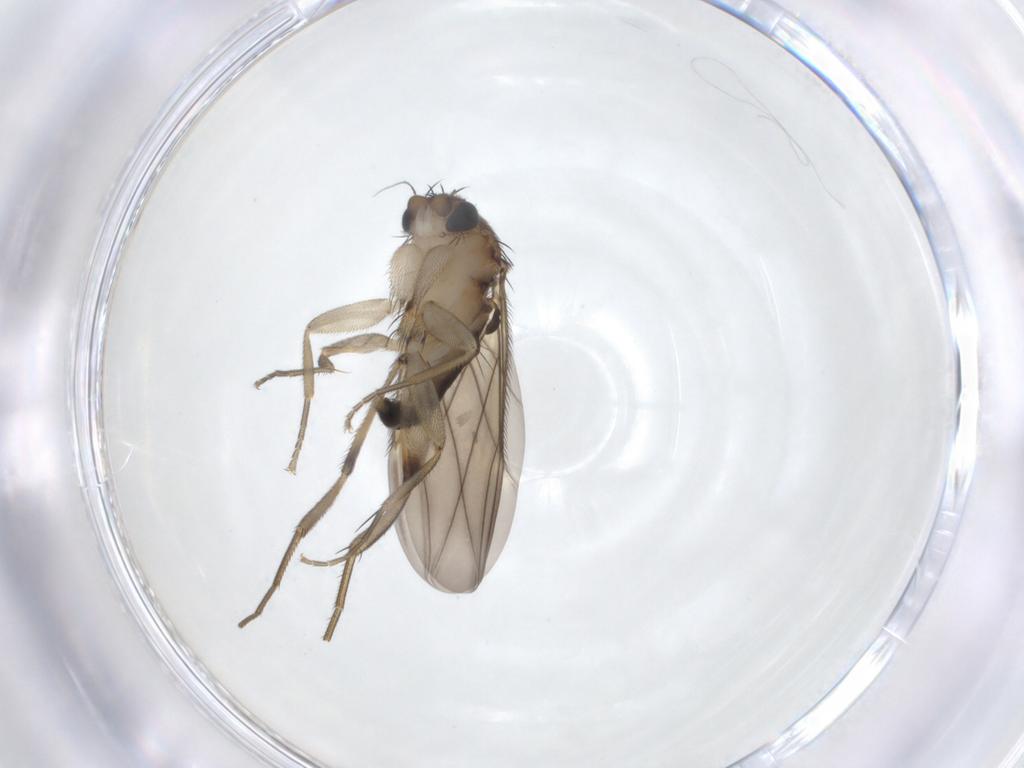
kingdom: Animalia
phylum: Arthropoda
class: Insecta
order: Diptera
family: Phoridae
